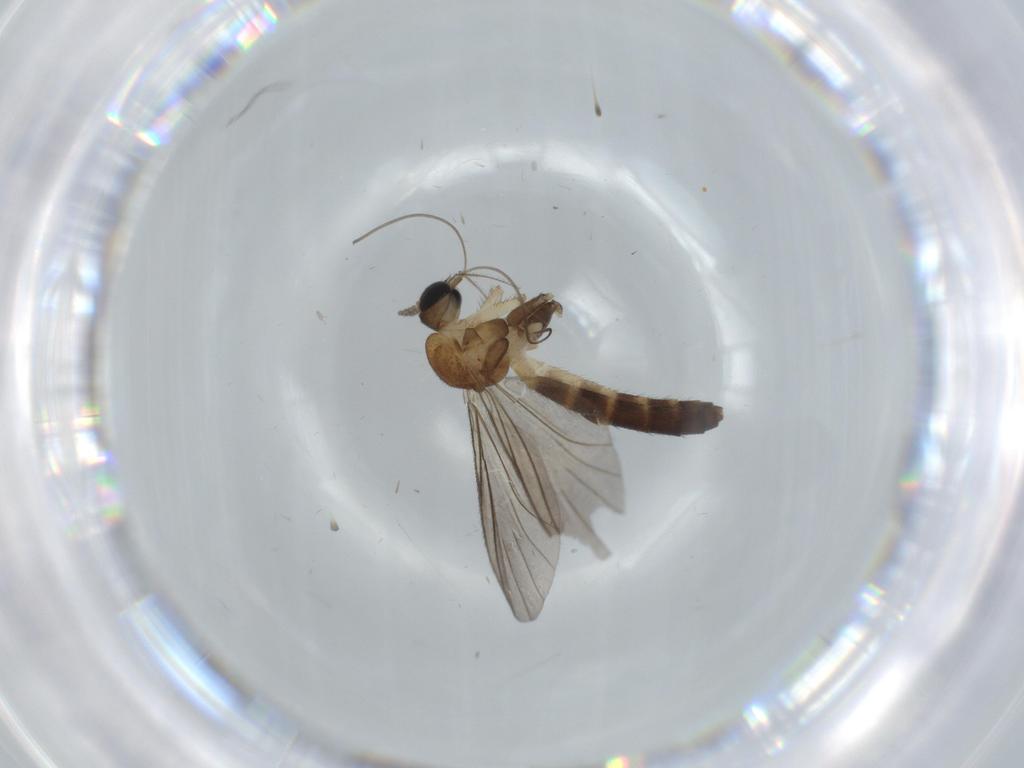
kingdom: Animalia
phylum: Arthropoda
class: Insecta
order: Diptera
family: Keroplatidae
